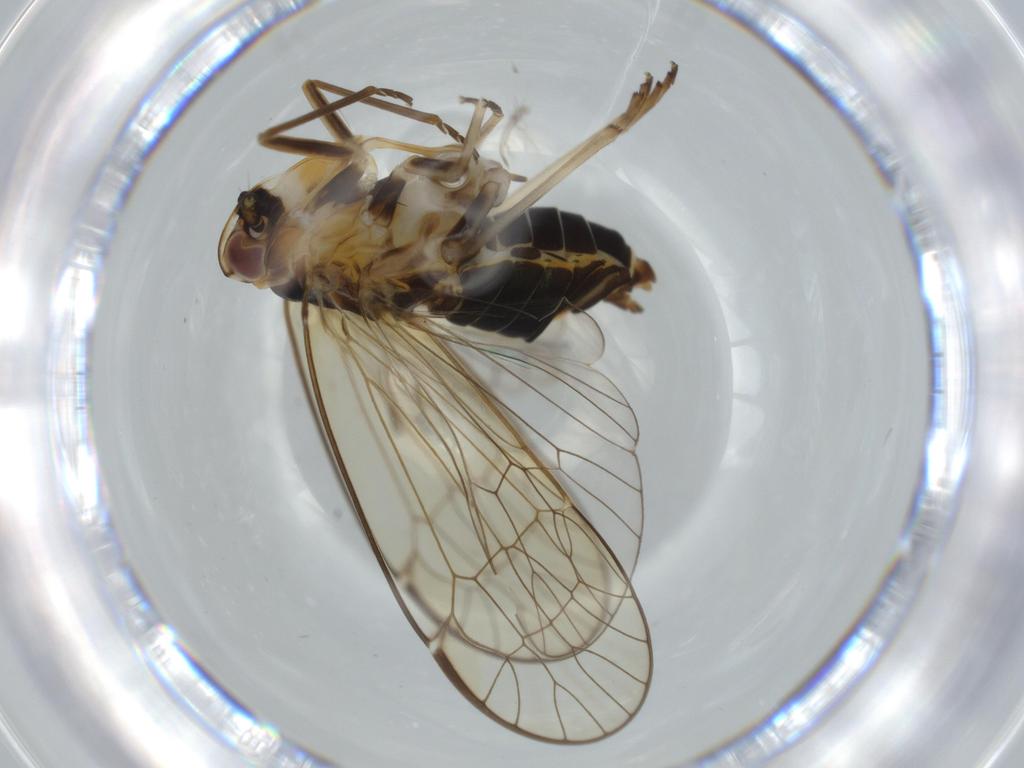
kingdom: Animalia
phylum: Arthropoda
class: Insecta
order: Hemiptera
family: Kinnaridae
